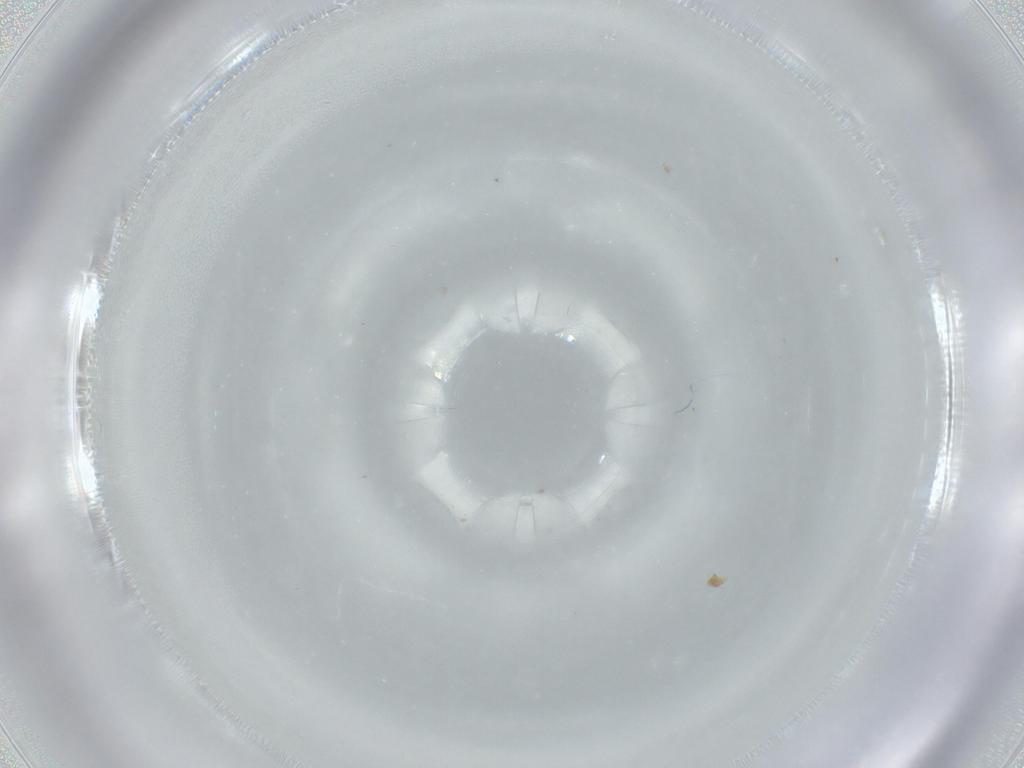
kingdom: Animalia
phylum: Arthropoda
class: Insecta
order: Diptera
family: Cecidomyiidae
